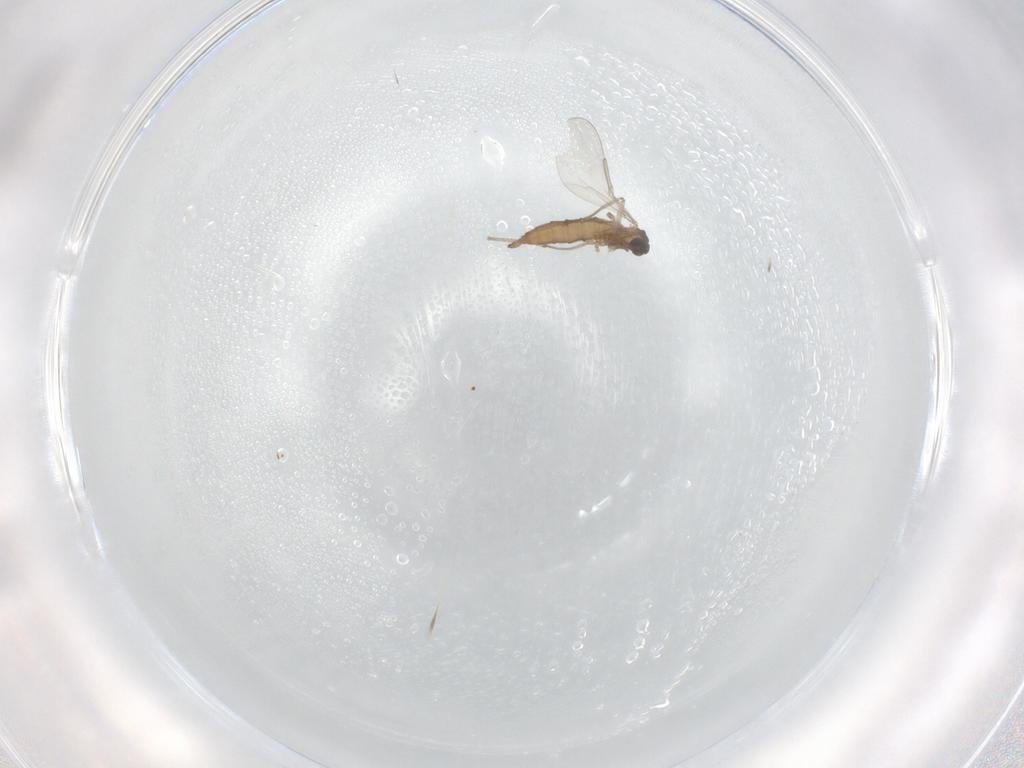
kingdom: Animalia
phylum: Arthropoda
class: Insecta
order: Diptera
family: Cecidomyiidae
